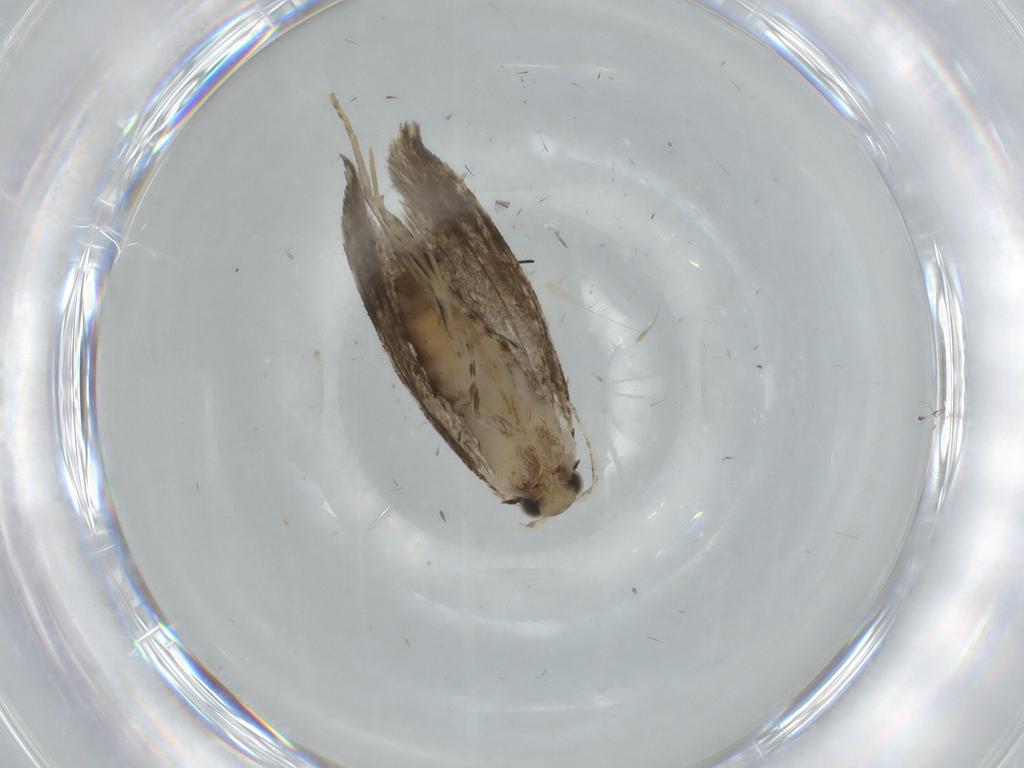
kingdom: Animalia
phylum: Arthropoda
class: Insecta
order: Lepidoptera
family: Tineidae
